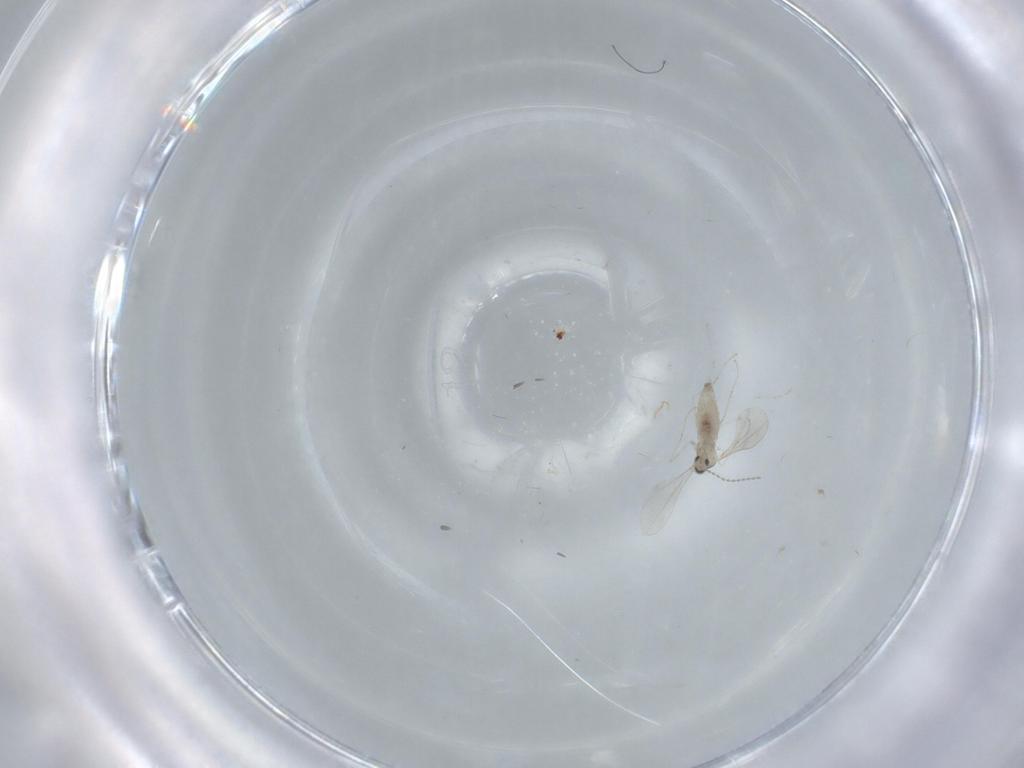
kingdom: Animalia
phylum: Arthropoda
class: Insecta
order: Diptera
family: Cecidomyiidae
